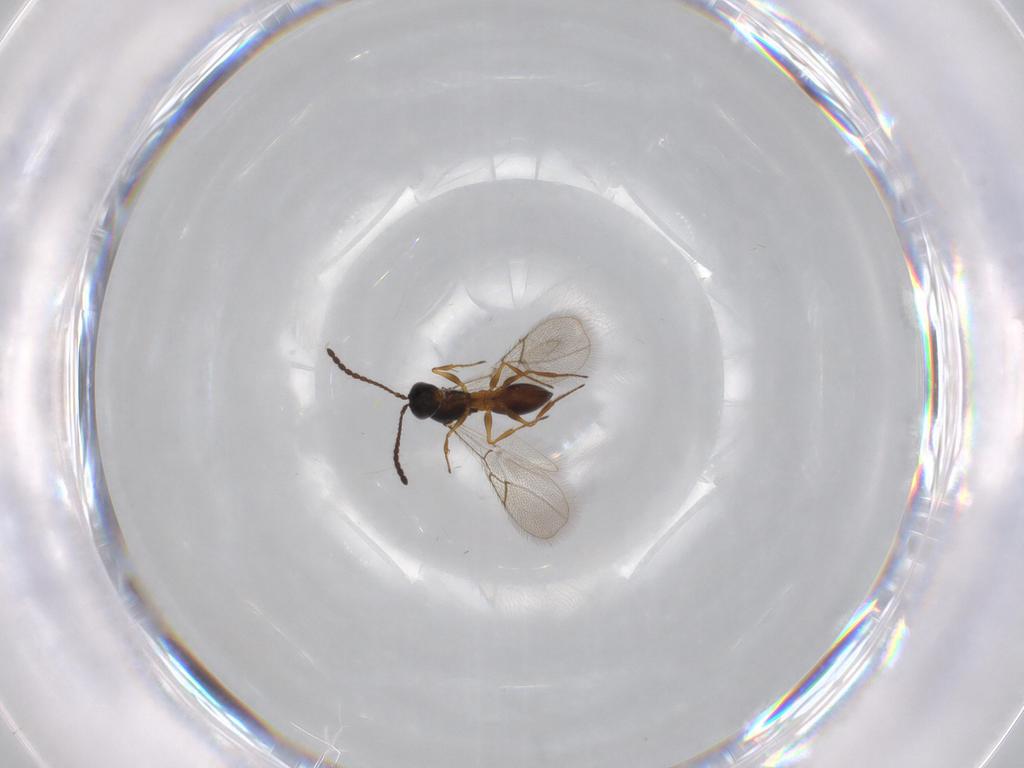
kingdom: Animalia
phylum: Arthropoda
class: Insecta
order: Hymenoptera
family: Figitidae
